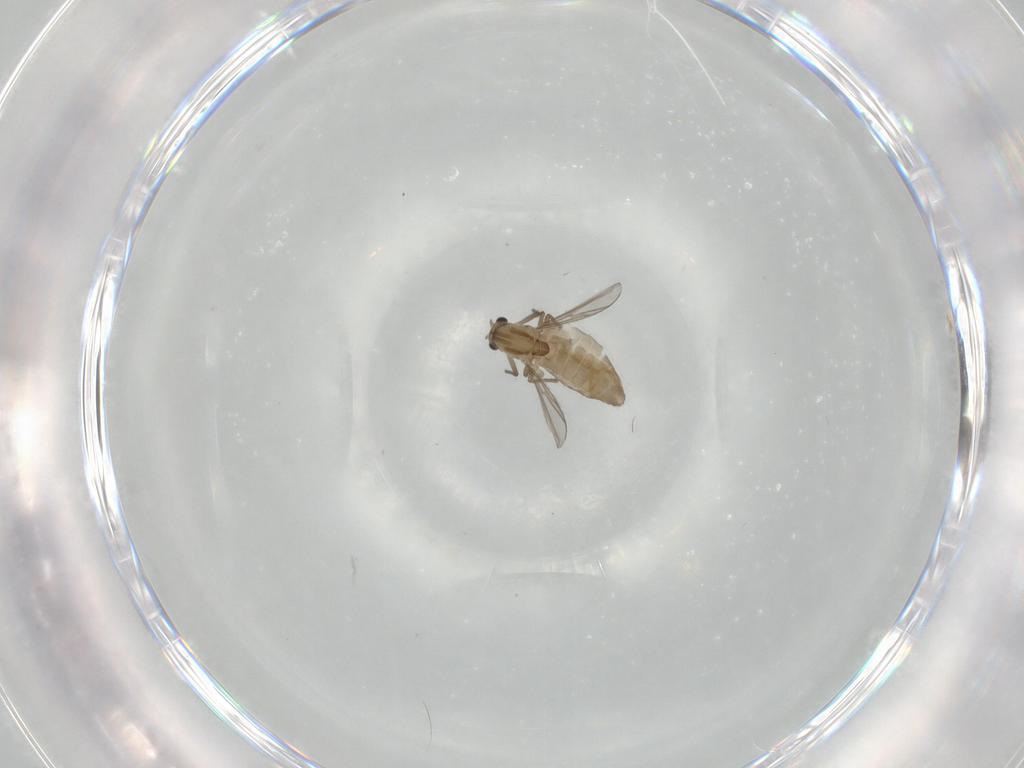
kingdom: Animalia
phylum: Arthropoda
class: Insecta
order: Diptera
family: Chironomidae
